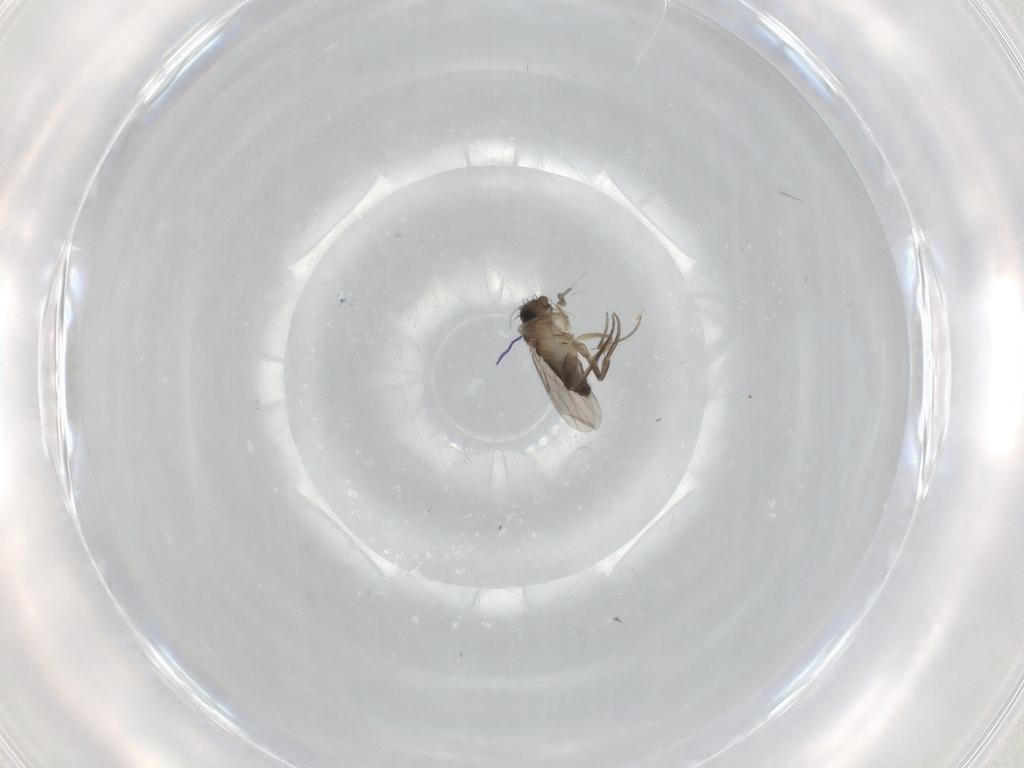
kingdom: Animalia
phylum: Arthropoda
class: Insecta
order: Diptera
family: Phoridae
